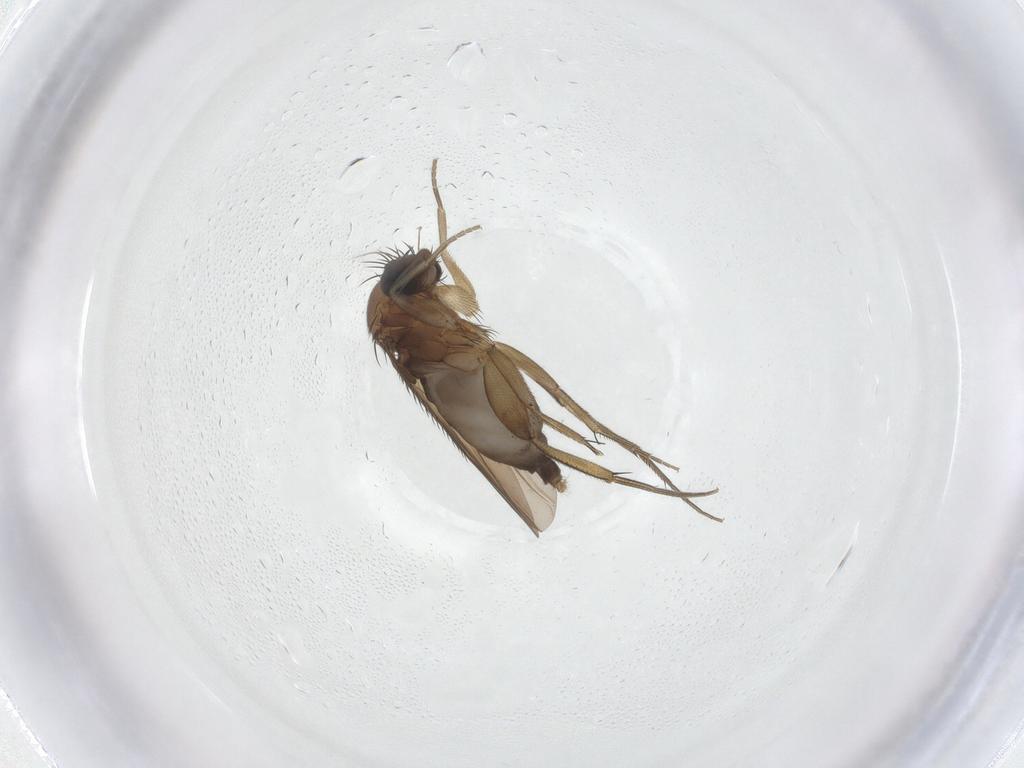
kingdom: Animalia
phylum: Arthropoda
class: Insecta
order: Diptera
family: Phoridae
